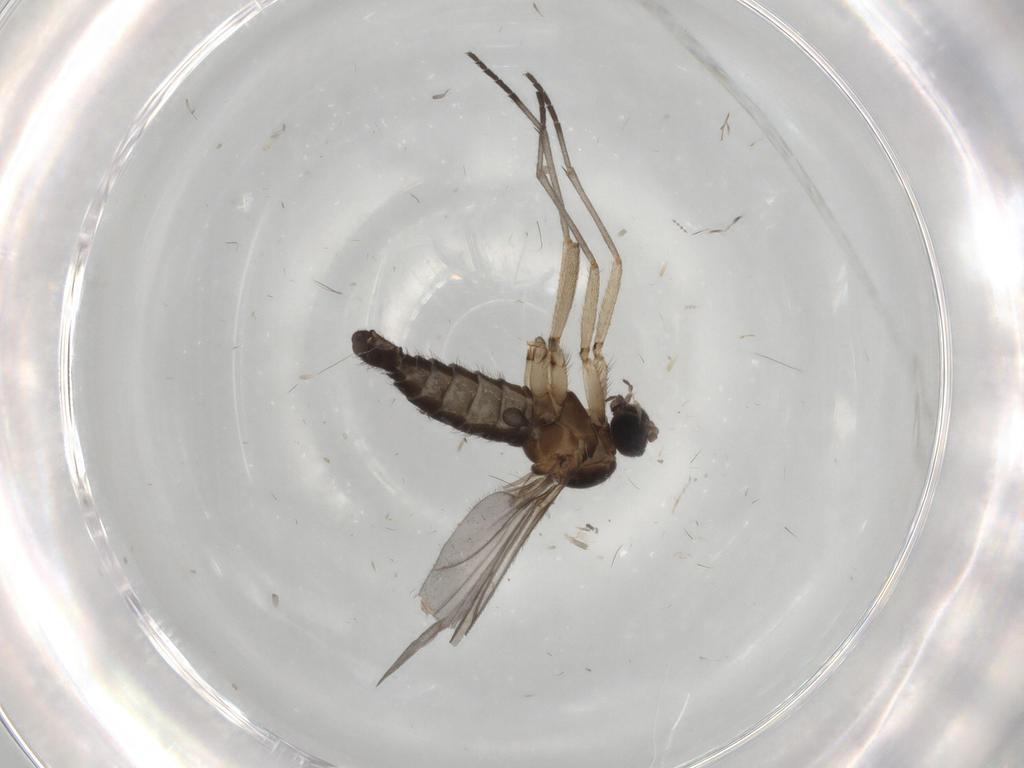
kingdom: Animalia
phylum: Arthropoda
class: Insecta
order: Diptera
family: Sciaridae
